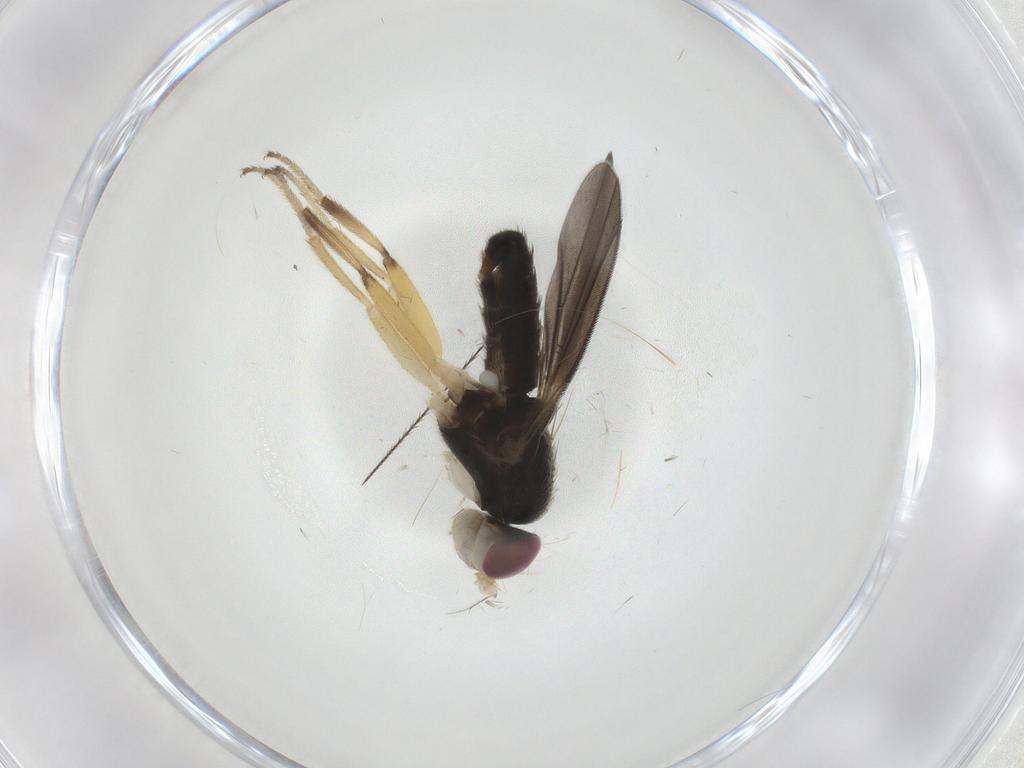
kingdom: Animalia
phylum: Arthropoda
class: Insecta
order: Diptera
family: Clusiidae
